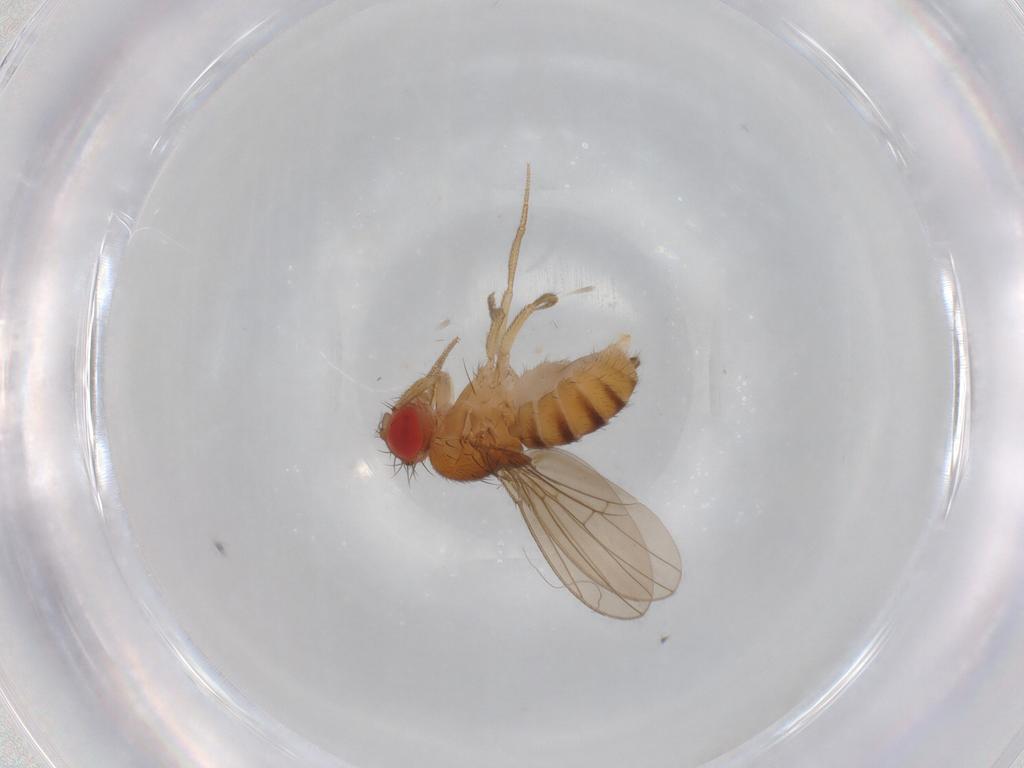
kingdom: Animalia
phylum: Arthropoda
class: Insecta
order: Diptera
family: Drosophilidae
